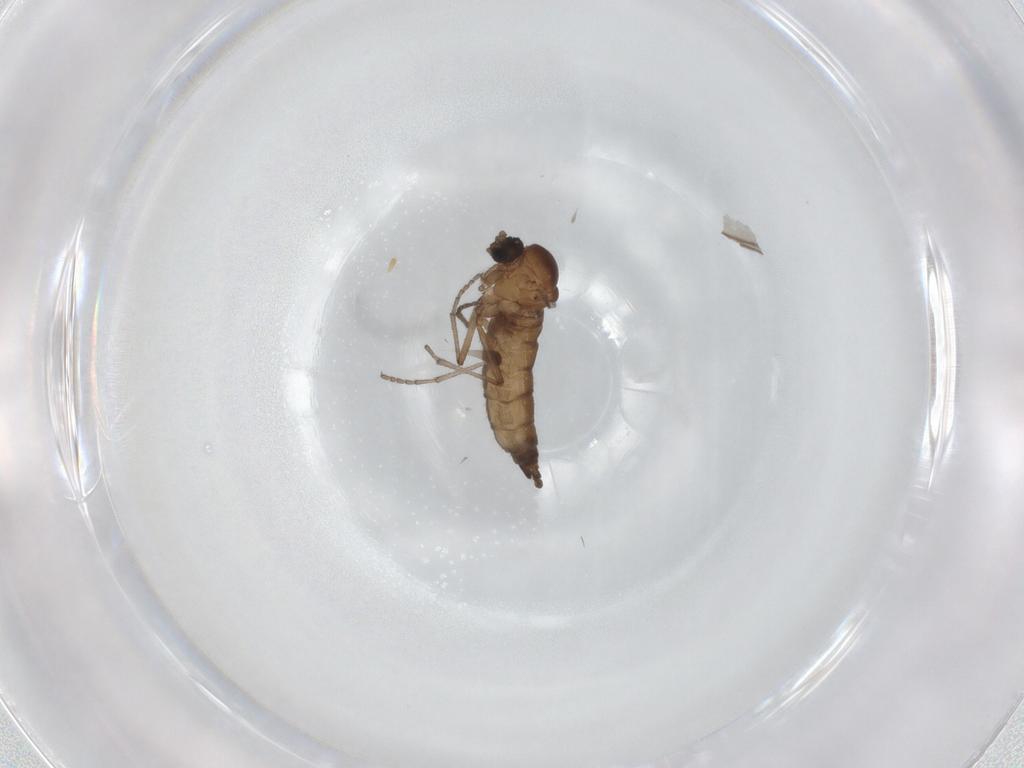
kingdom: Animalia
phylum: Arthropoda
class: Insecta
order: Diptera
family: Sciaridae
